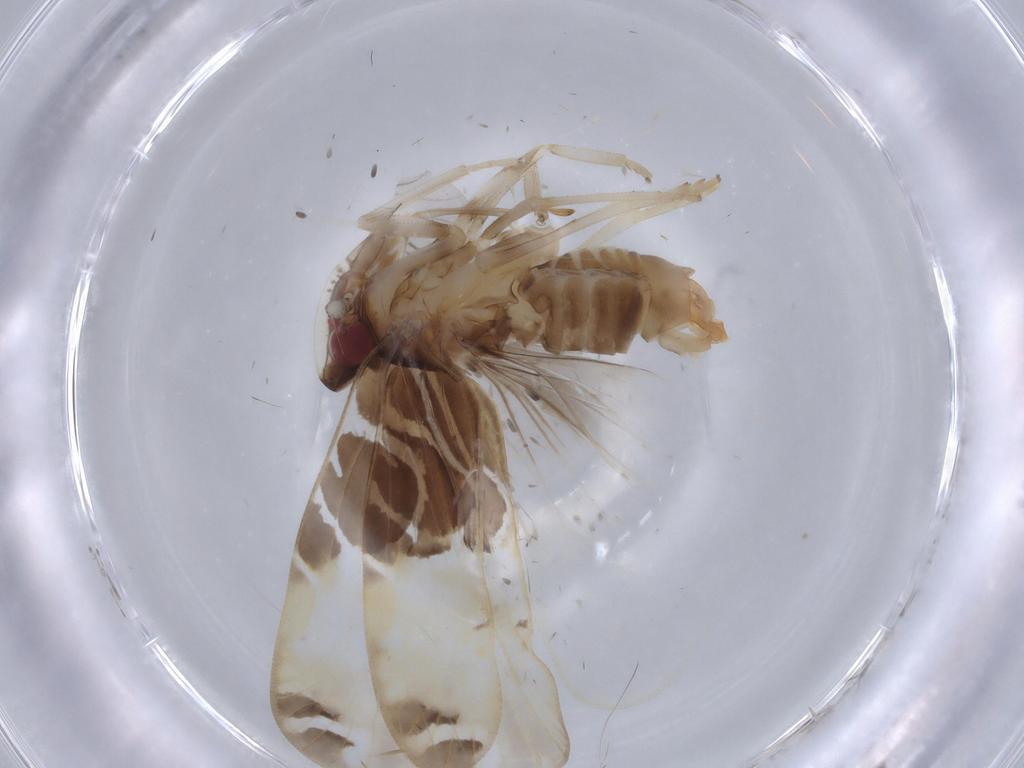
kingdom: Animalia
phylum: Arthropoda
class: Insecta
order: Hemiptera
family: Cixiidae
